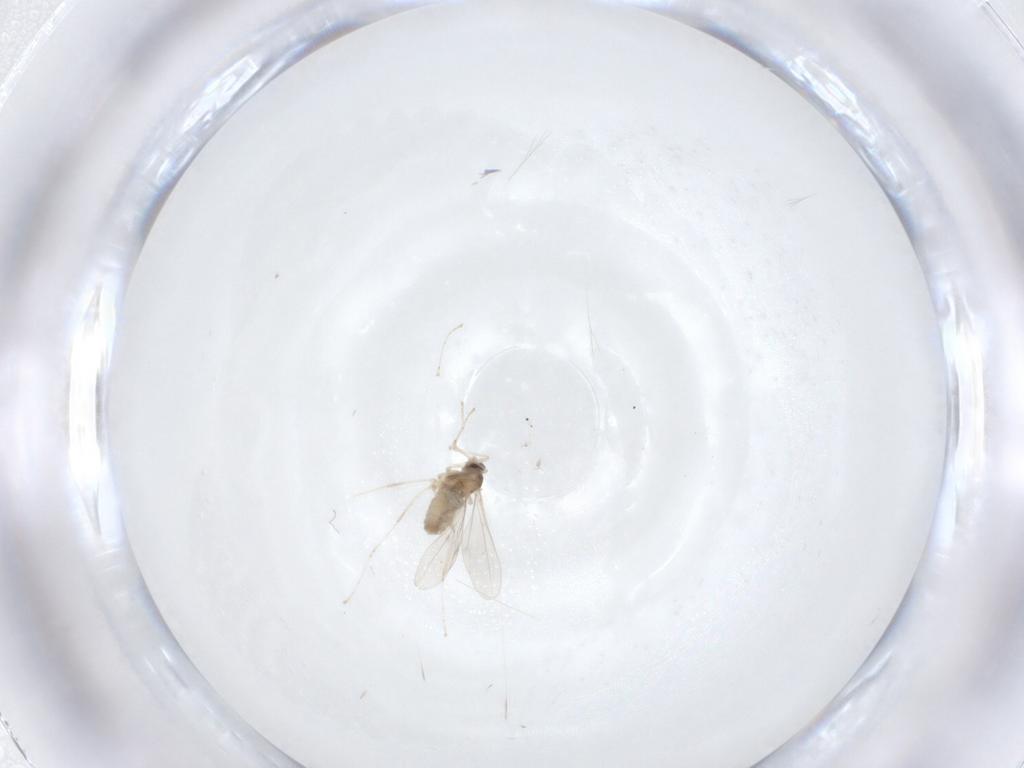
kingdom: Animalia
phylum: Arthropoda
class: Insecta
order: Diptera
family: Cecidomyiidae
